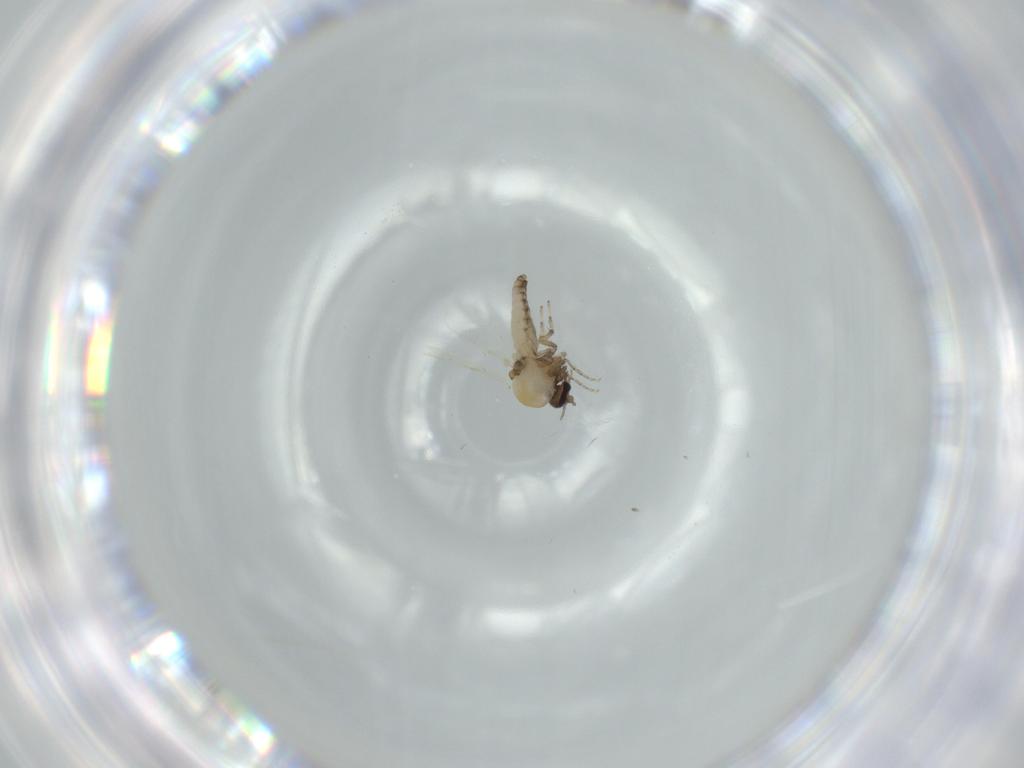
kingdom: Animalia
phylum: Arthropoda
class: Insecta
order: Diptera
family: Ceratopogonidae
